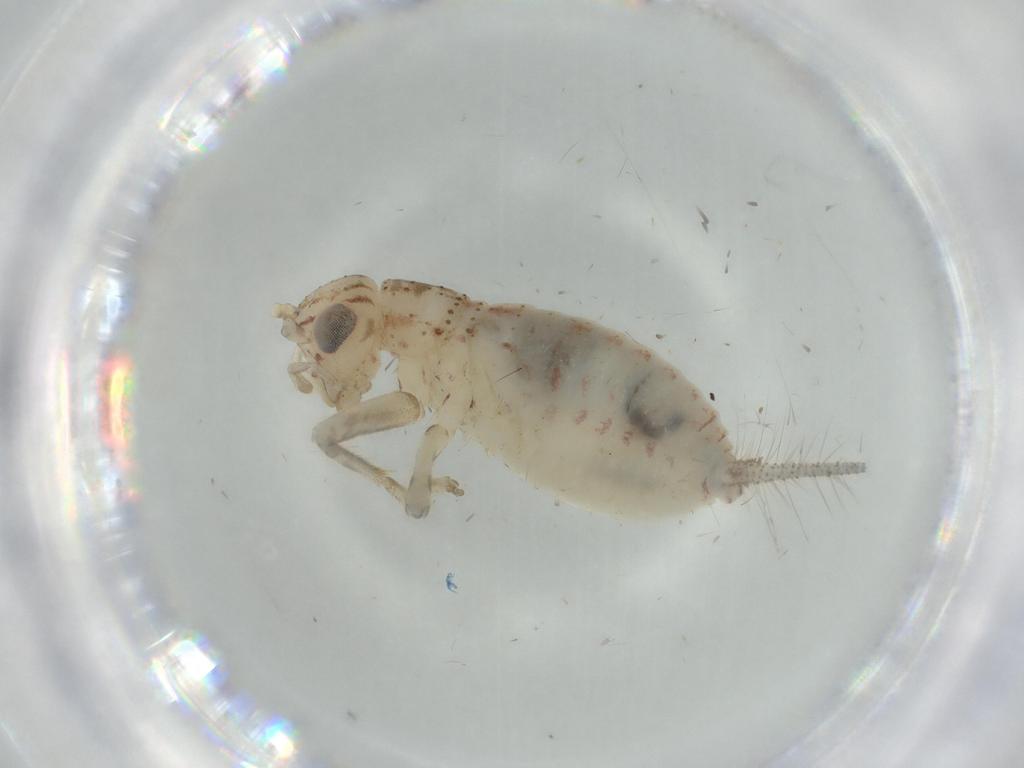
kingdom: Animalia
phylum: Arthropoda
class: Insecta
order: Orthoptera
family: Trigonidiidae
